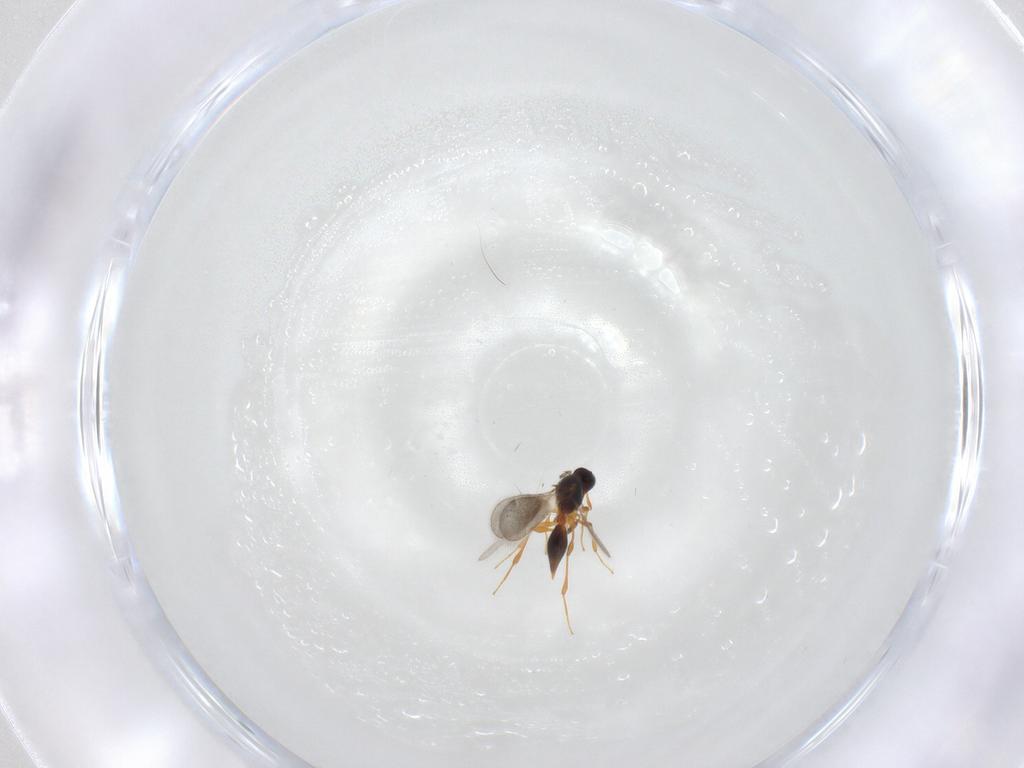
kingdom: Animalia
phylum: Arthropoda
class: Insecta
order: Hymenoptera
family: Platygastridae
